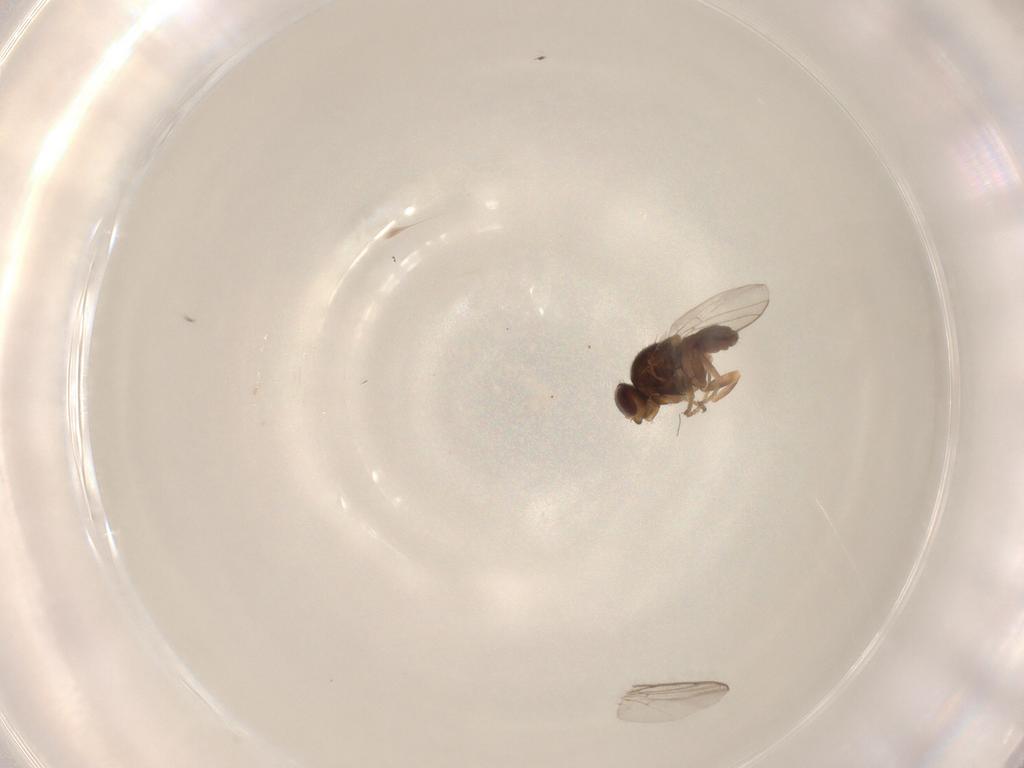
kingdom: Animalia
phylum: Arthropoda
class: Insecta
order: Diptera
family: Chloropidae
